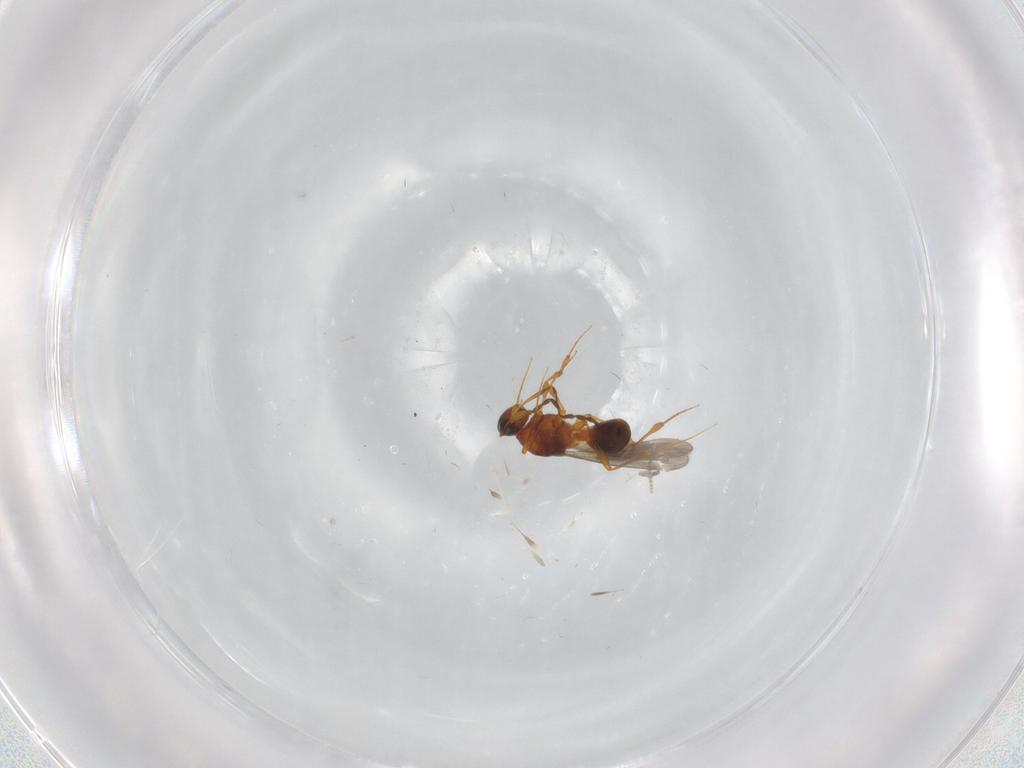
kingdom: Animalia
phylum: Arthropoda
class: Insecta
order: Hymenoptera
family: Platygastridae
